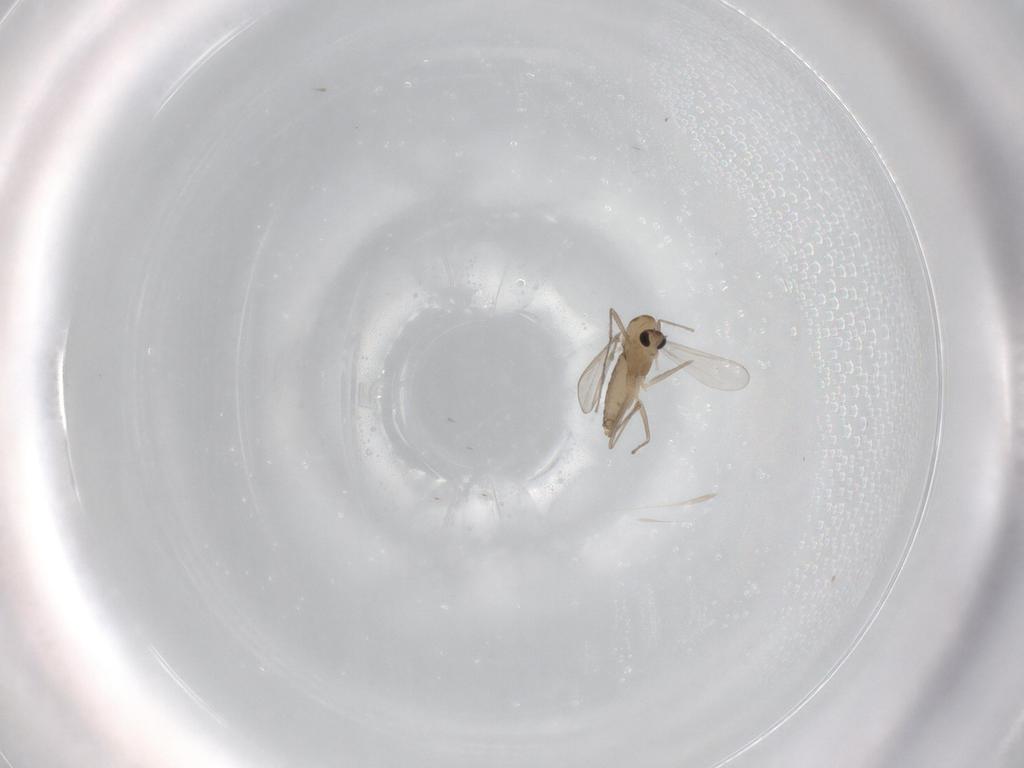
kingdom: Animalia
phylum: Arthropoda
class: Insecta
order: Diptera
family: Chironomidae
